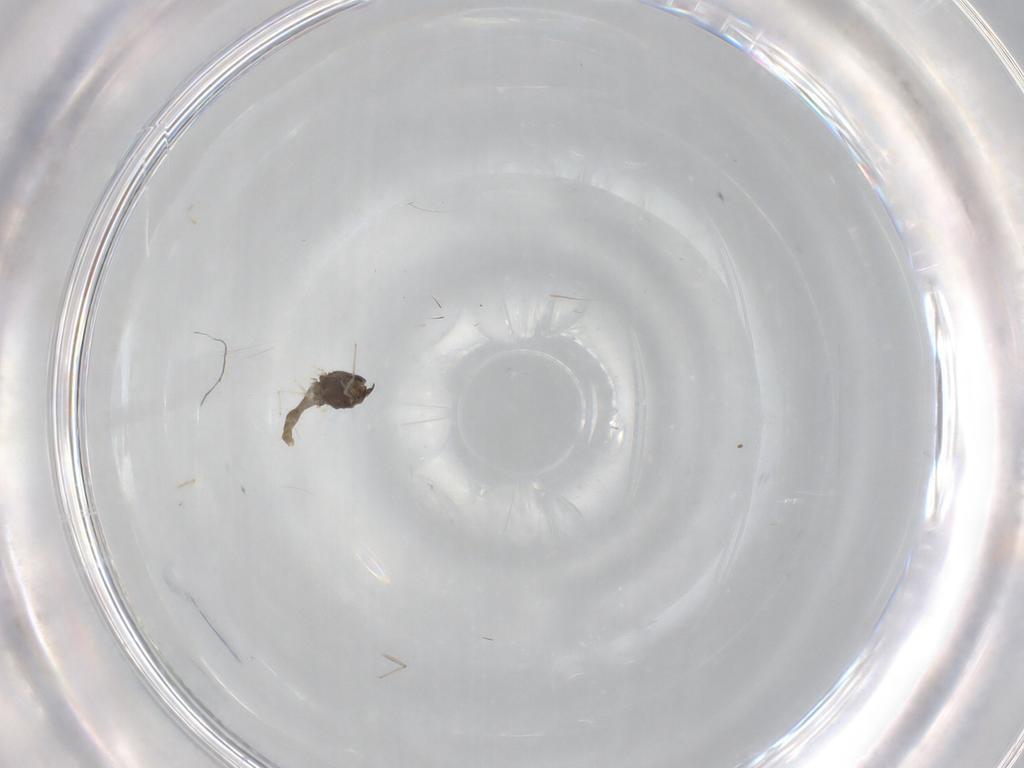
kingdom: Animalia
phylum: Arthropoda
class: Insecta
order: Diptera
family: Chironomidae
